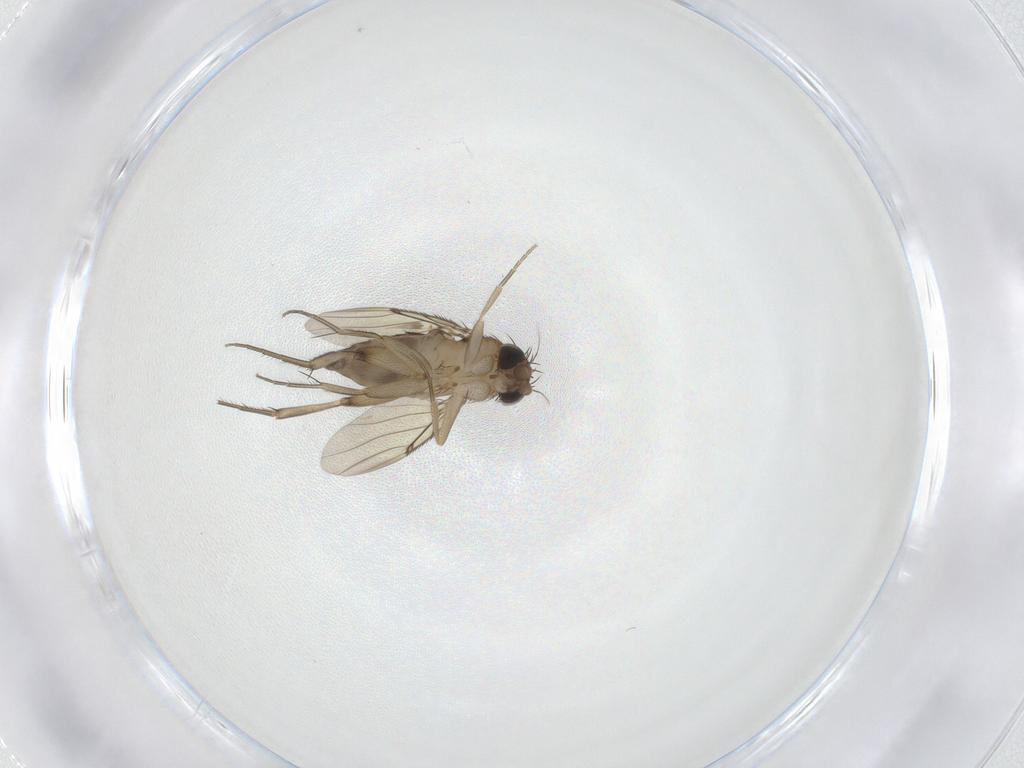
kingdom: Animalia
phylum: Arthropoda
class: Insecta
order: Diptera
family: Phoridae
